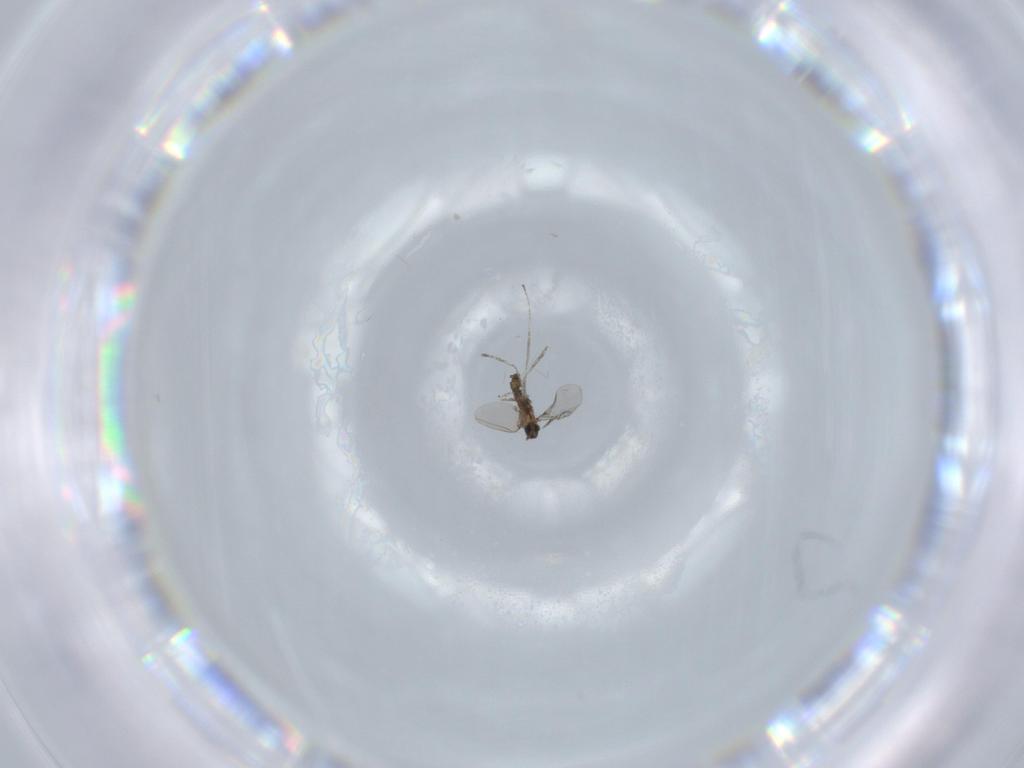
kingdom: Animalia
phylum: Arthropoda
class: Insecta
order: Diptera
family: Cecidomyiidae
